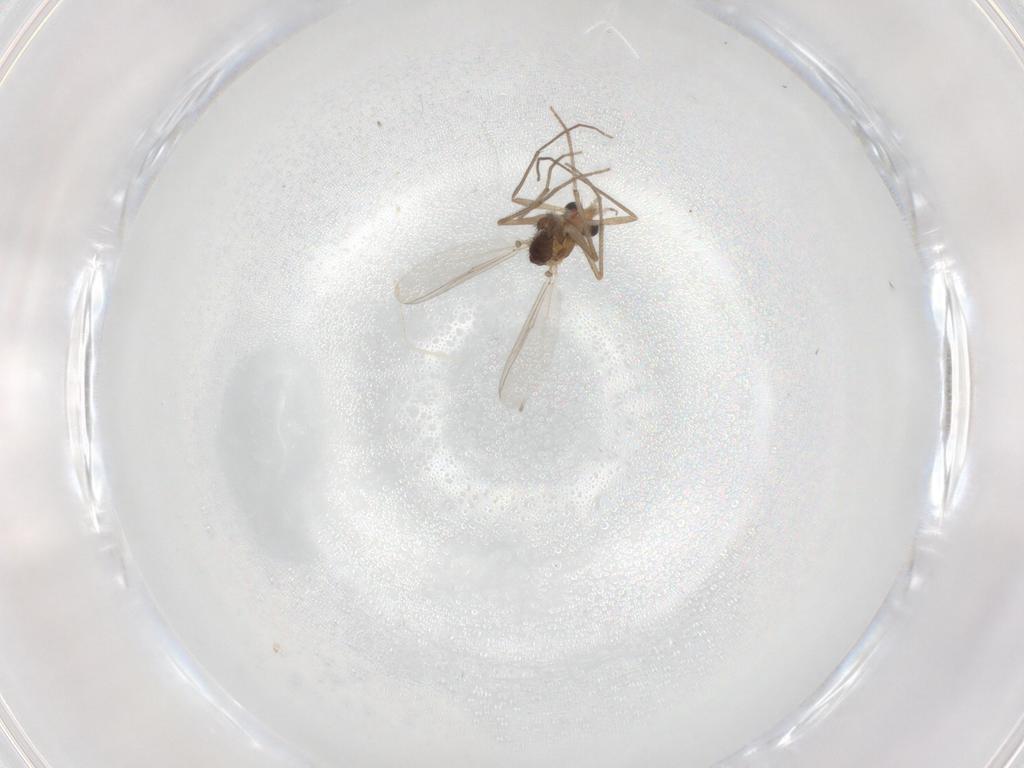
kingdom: Animalia
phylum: Arthropoda
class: Insecta
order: Diptera
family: Chironomidae
